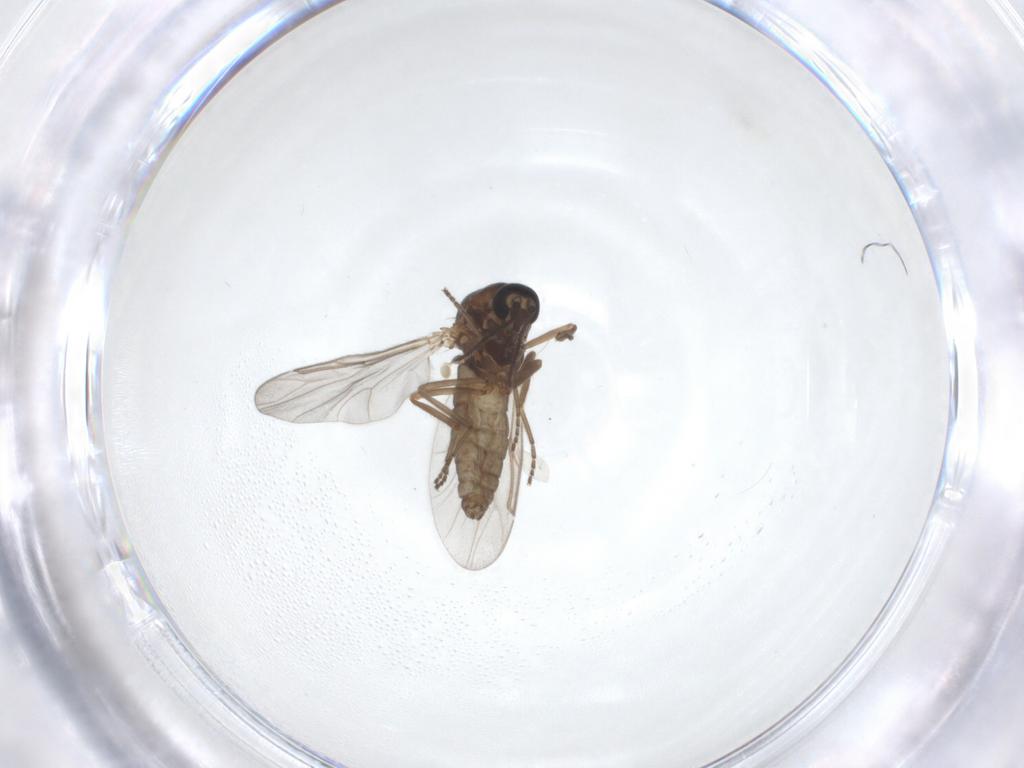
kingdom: Animalia
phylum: Arthropoda
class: Insecta
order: Diptera
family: Ceratopogonidae
